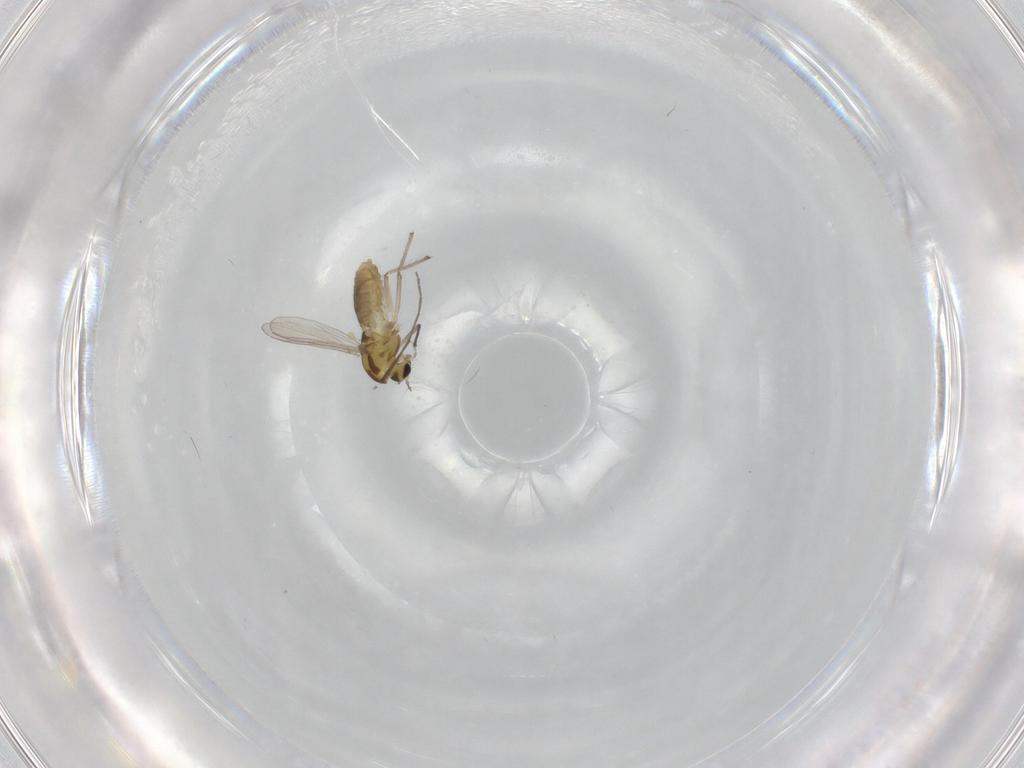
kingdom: Animalia
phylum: Arthropoda
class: Insecta
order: Diptera
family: Chironomidae
